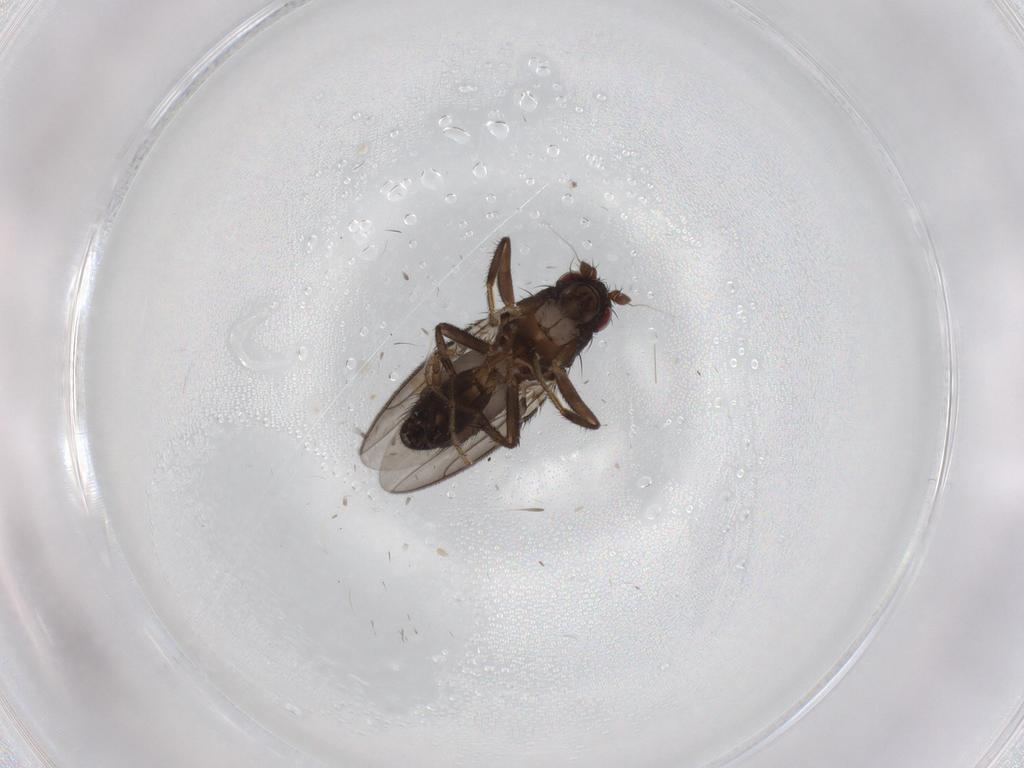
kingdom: Animalia
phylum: Arthropoda
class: Insecta
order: Diptera
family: Sphaeroceridae
